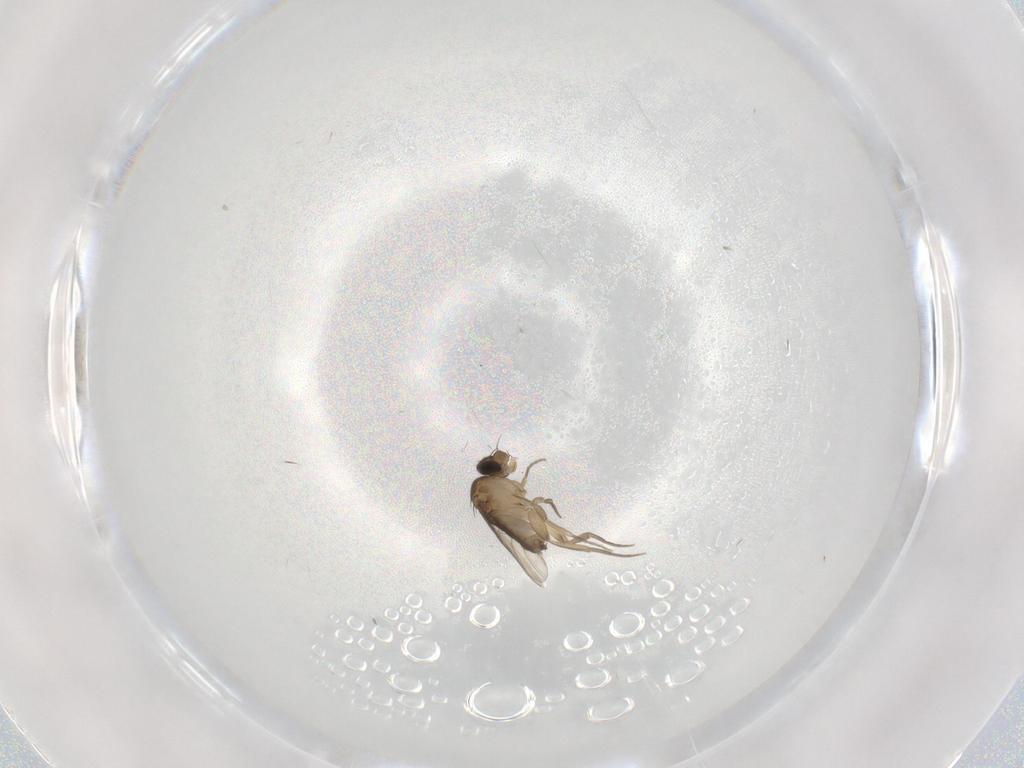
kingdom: Animalia
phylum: Arthropoda
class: Insecta
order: Diptera
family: Phoridae
